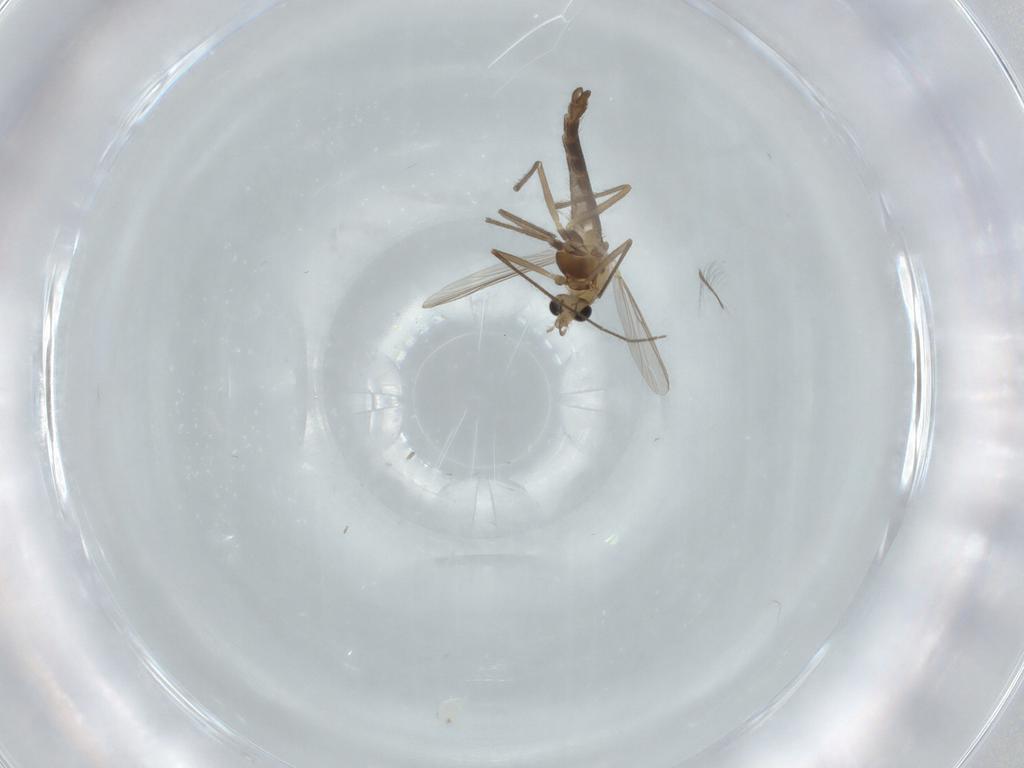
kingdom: Animalia
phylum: Arthropoda
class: Insecta
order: Diptera
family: Chironomidae
